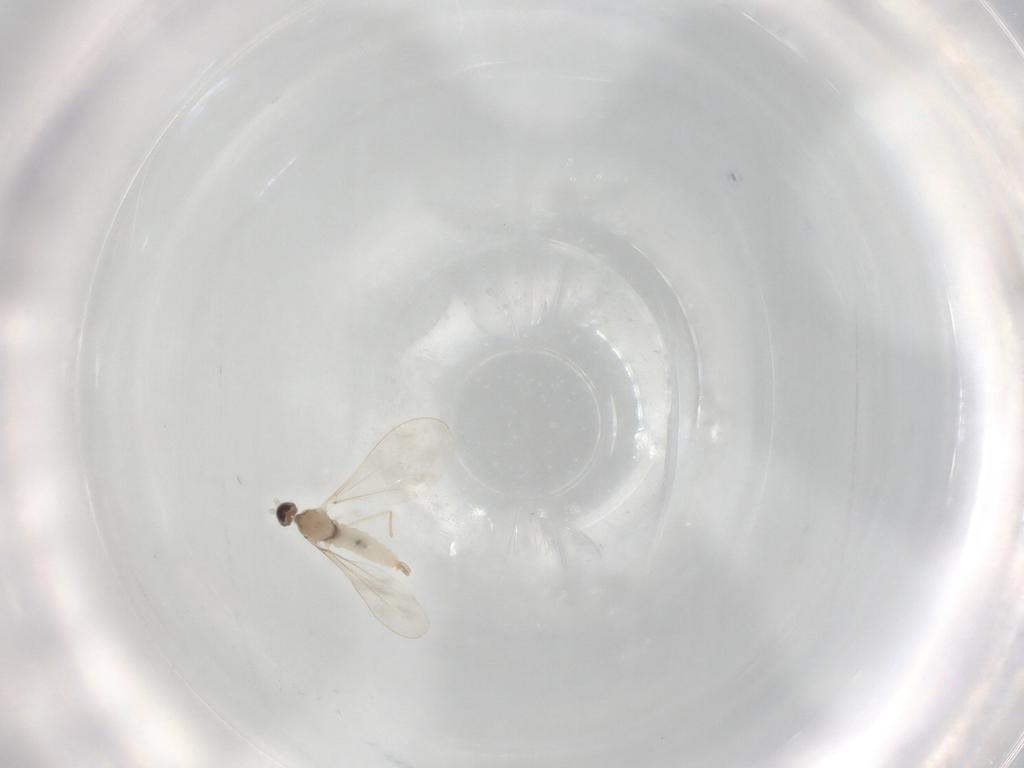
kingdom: Animalia
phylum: Arthropoda
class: Insecta
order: Diptera
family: Cecidomyiidae
